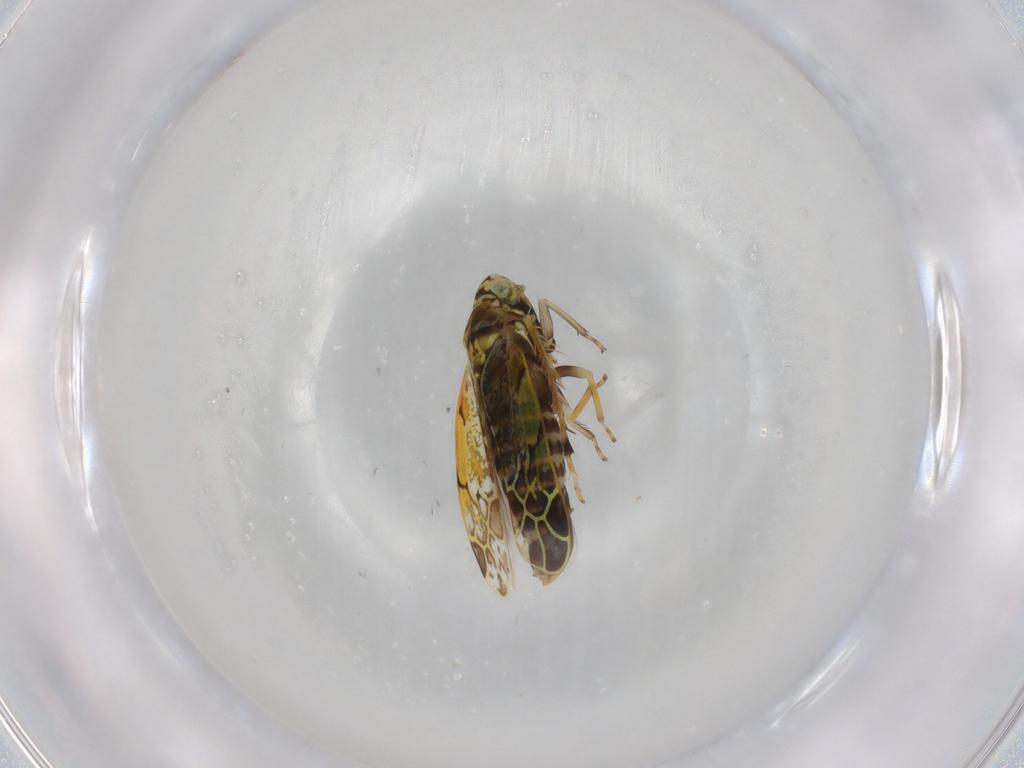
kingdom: Animalia
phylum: Arthropoda
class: Insecta
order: Hemiptera
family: Cicadellidae
